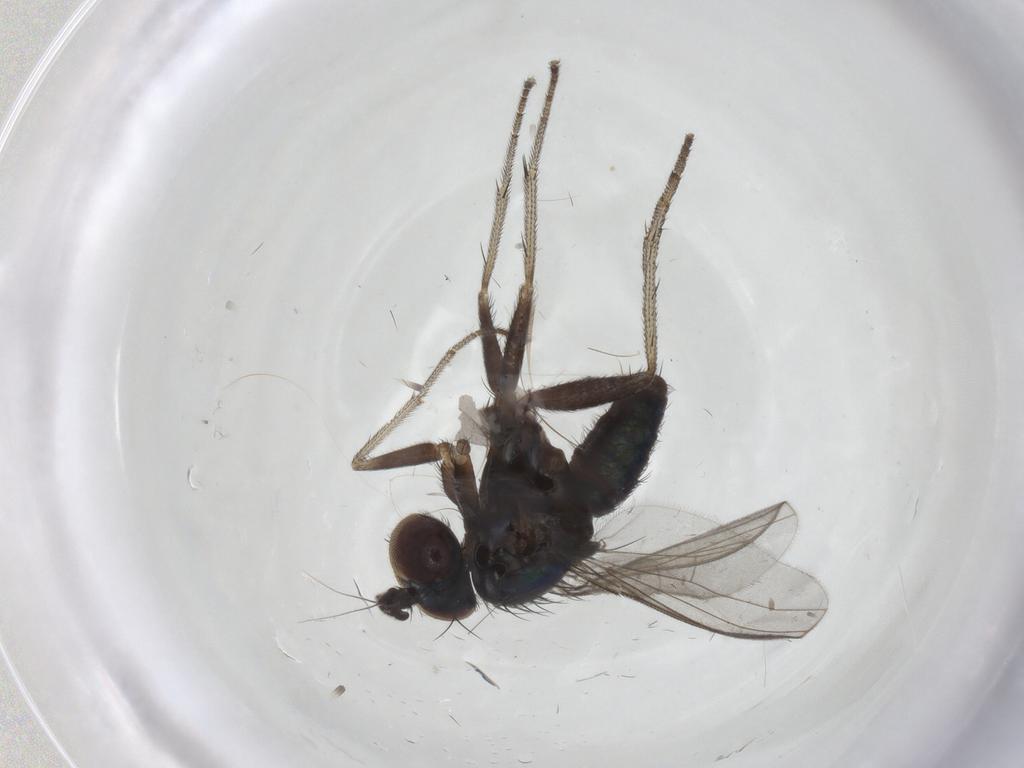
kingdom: Animalia
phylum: Arthropoda
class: Insecta
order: Diptera
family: Dolichopodidae
